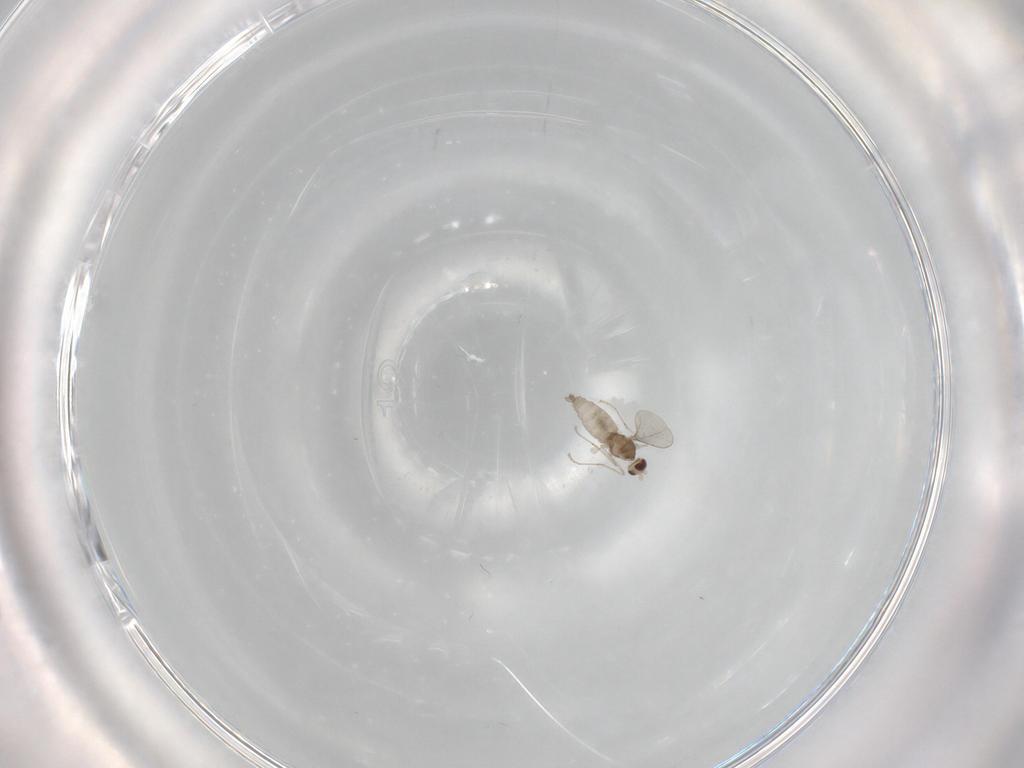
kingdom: Animalia
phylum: Arthropoda
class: Insecta
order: Diptera
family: Cecidomyiidae
